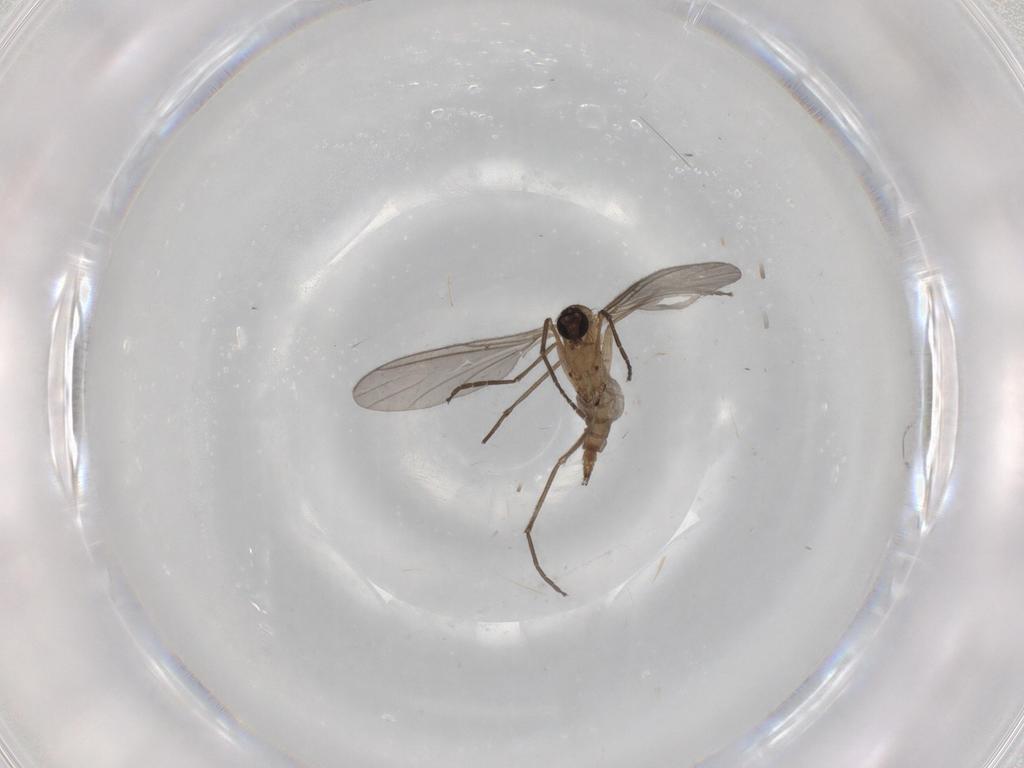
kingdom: Animalia
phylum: Arthropoda
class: Insecta
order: Diptera
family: Sciaridae
